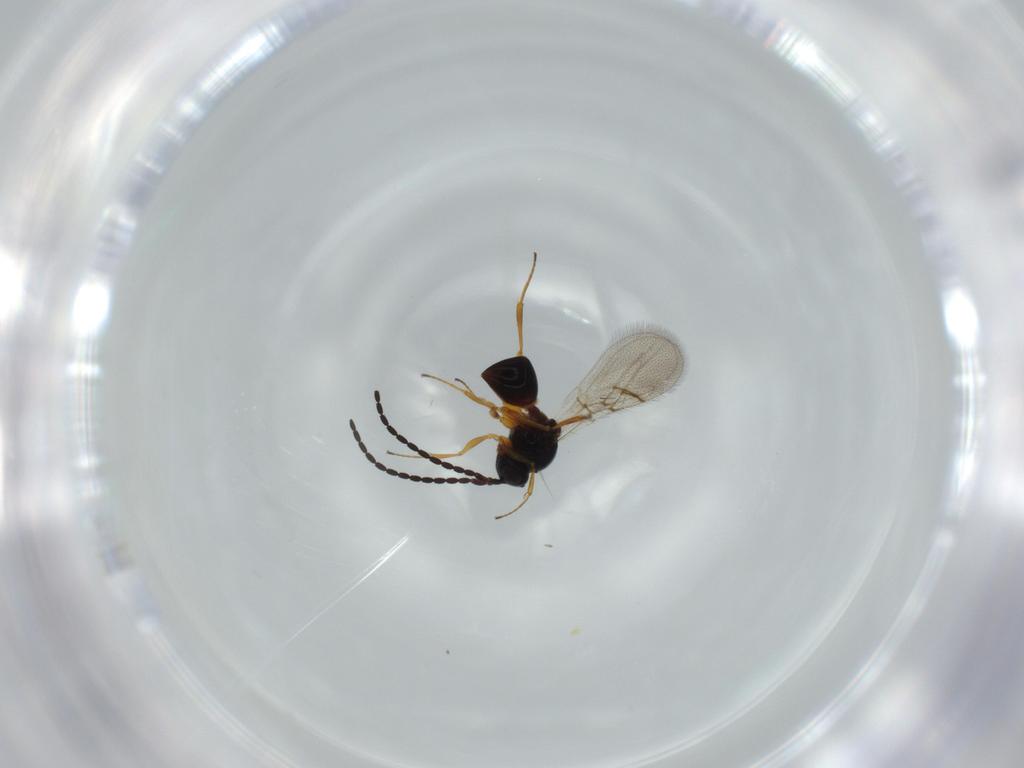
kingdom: Animalia
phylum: Arthropoda
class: Insecta
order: Hymenoptera
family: Figitidae
